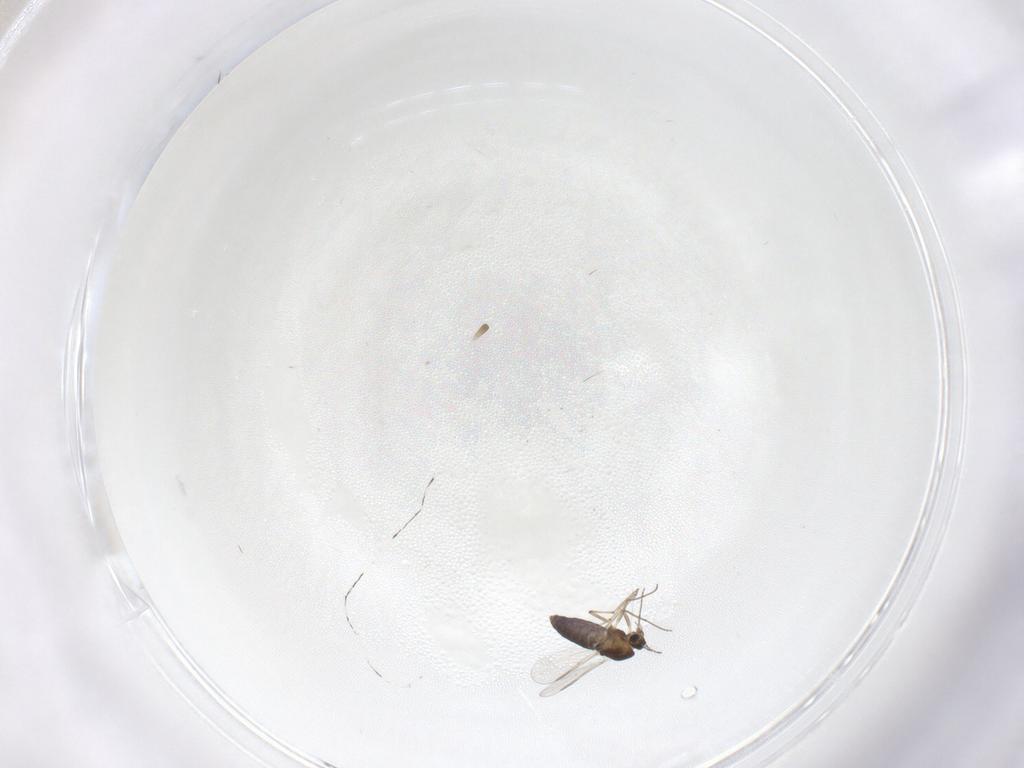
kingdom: Animalia
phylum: Arthropoda
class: Insecta
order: Diptera
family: Chironomidae
